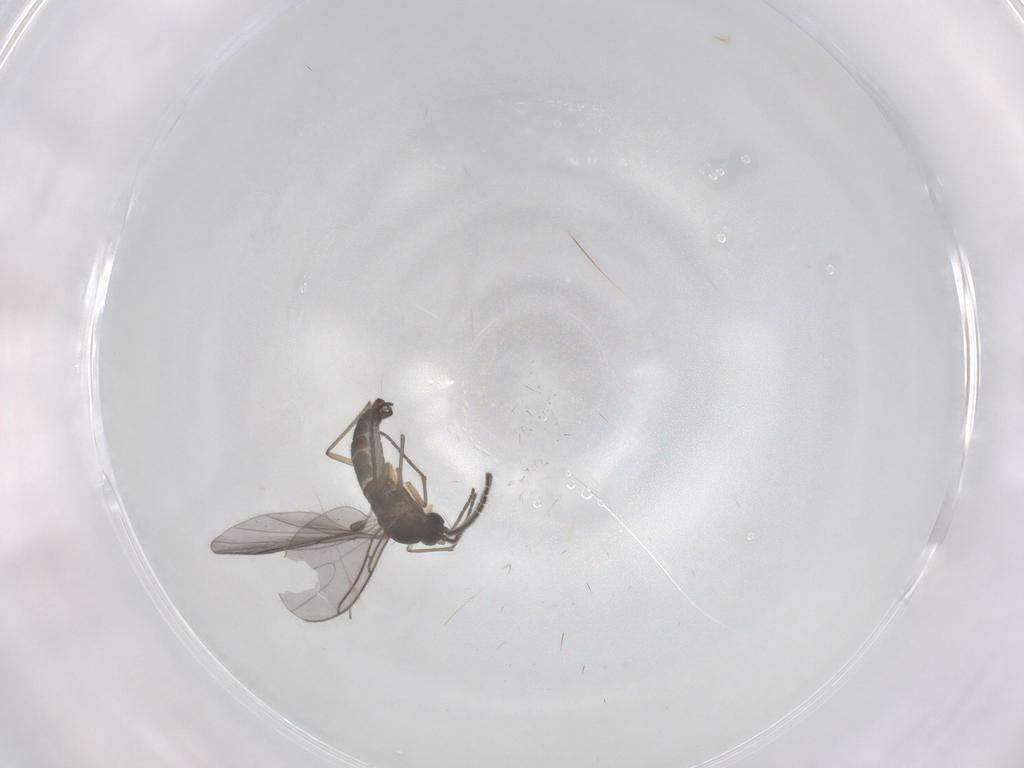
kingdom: Animalia
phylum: Arthropoda
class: Insecta
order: Diptera
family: Sciaridae
